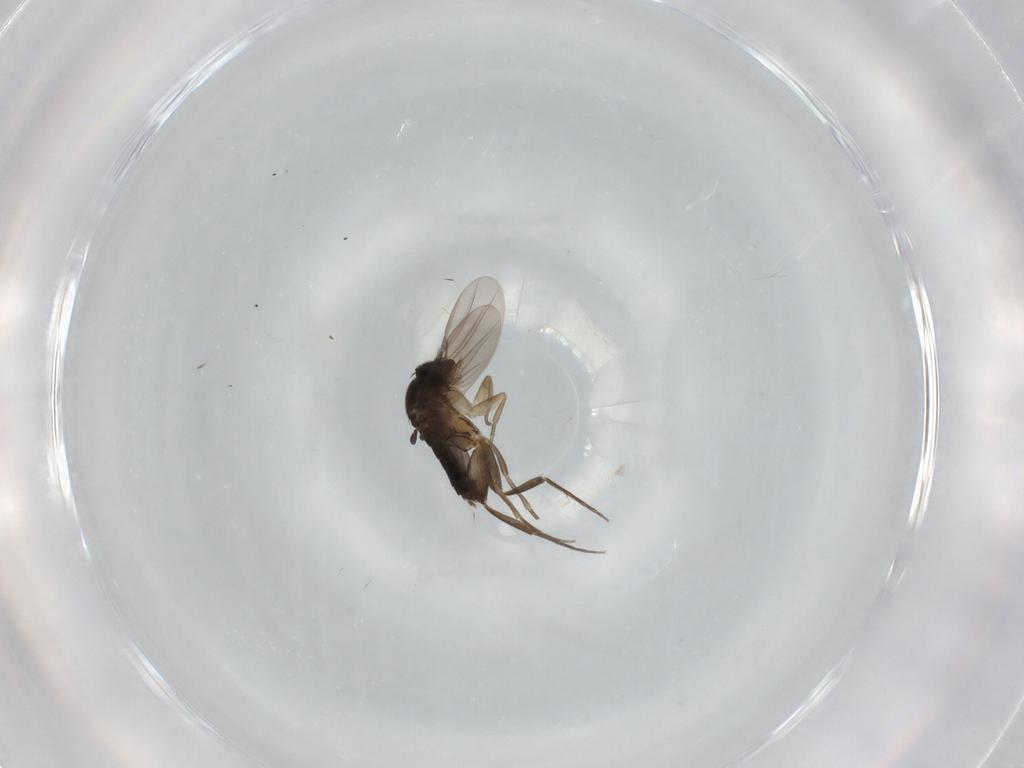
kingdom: Animalia
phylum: Arthropoda
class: Insecta
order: Diptera
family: Phoridae
